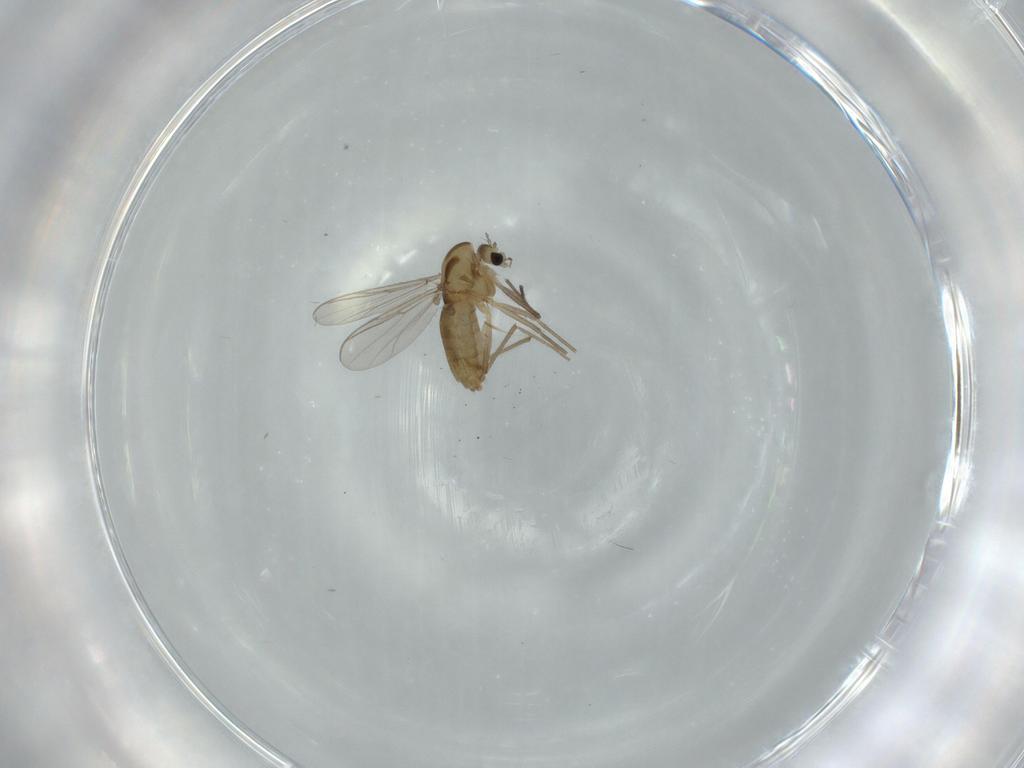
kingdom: Animalia
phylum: Arthropoda
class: Insecta
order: Diptera
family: Chironomidae
